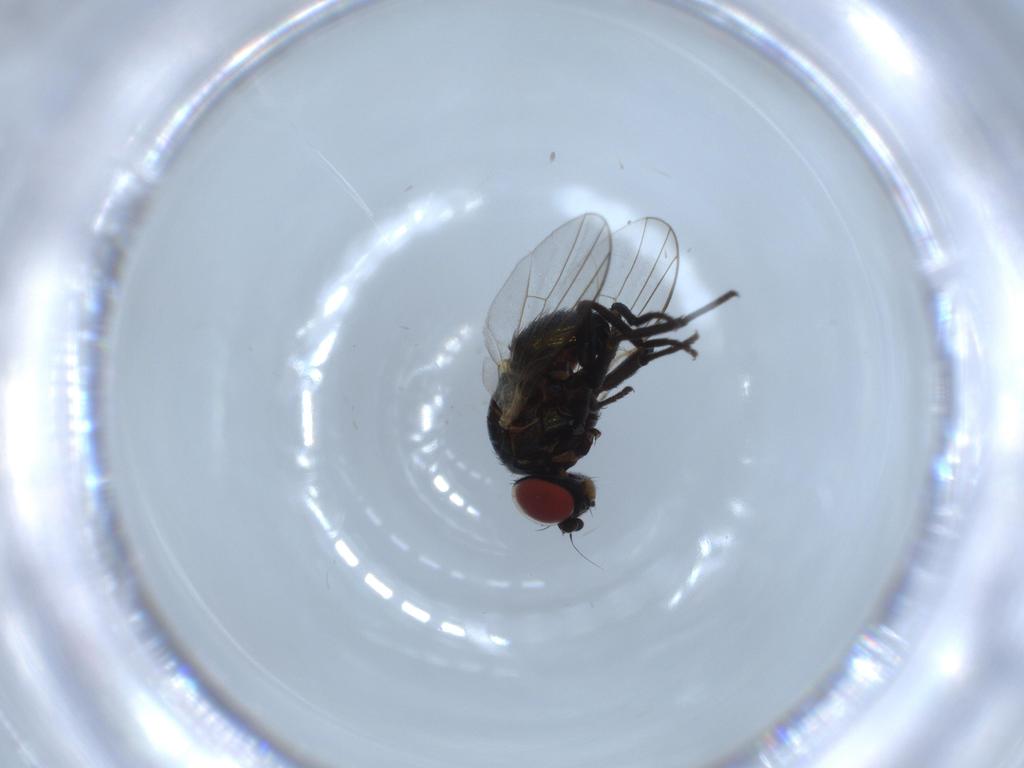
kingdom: Animalia
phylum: Arthropoda
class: Insecta
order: Diptera
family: Agromyzidae
